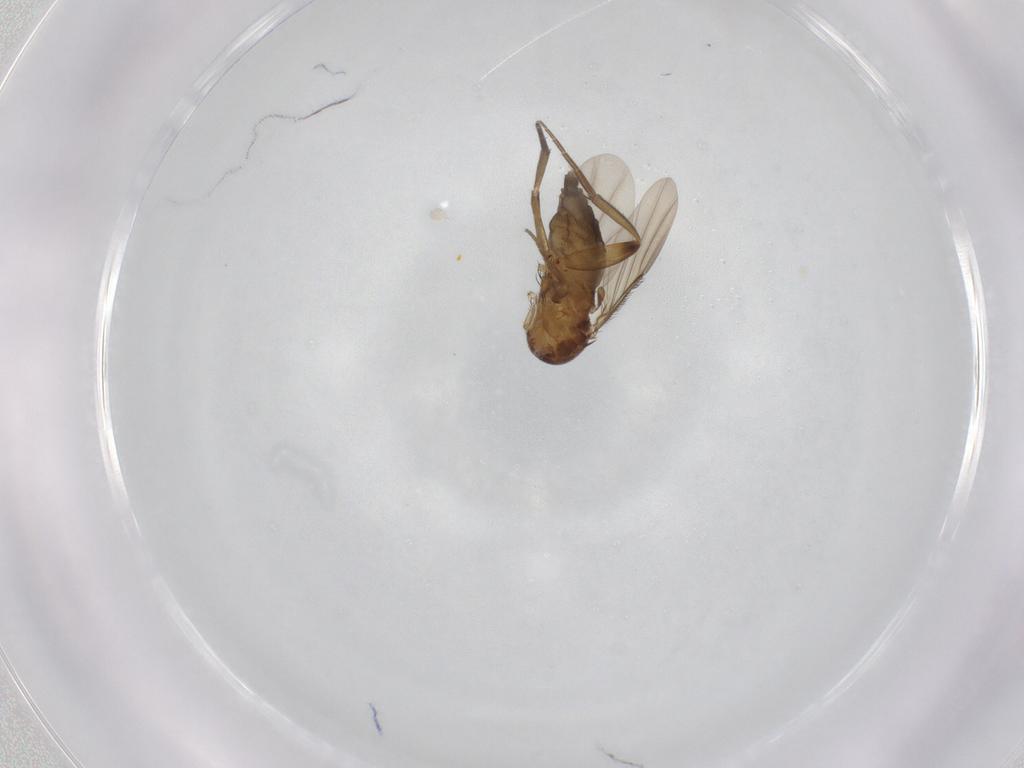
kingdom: Animalia
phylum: Arthropoda
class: Insecta
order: Diptera
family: Phoridae
